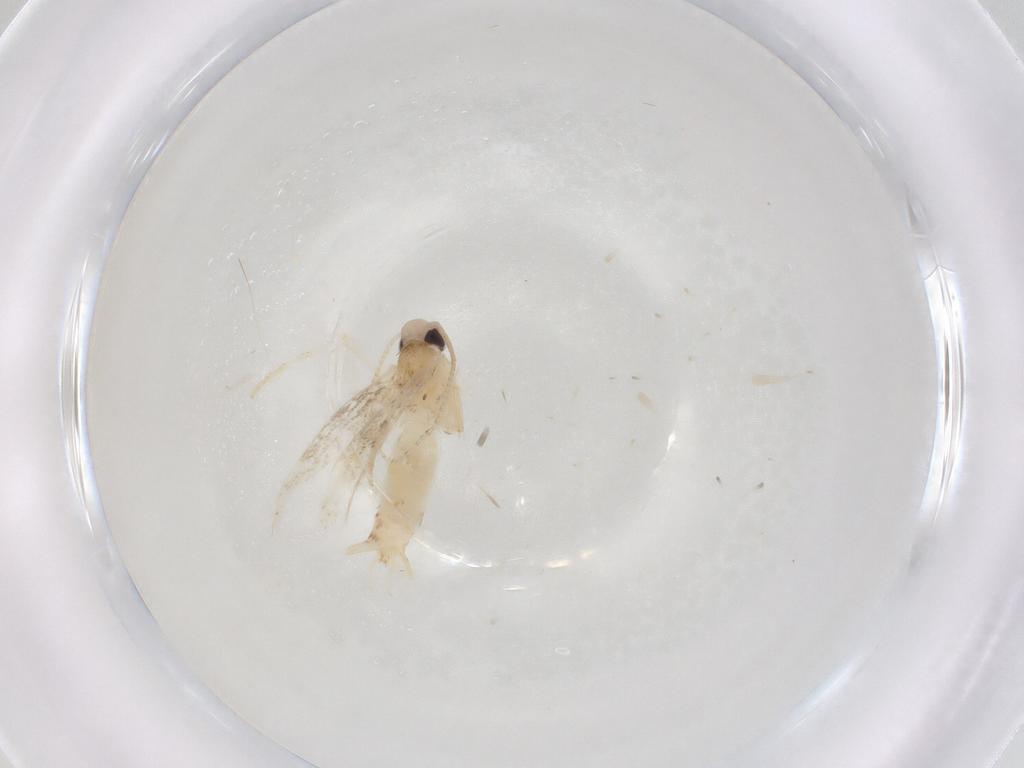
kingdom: Animalia
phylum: Arthropoda
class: Insecta
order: Lepidoptera
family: Gracillariidae
